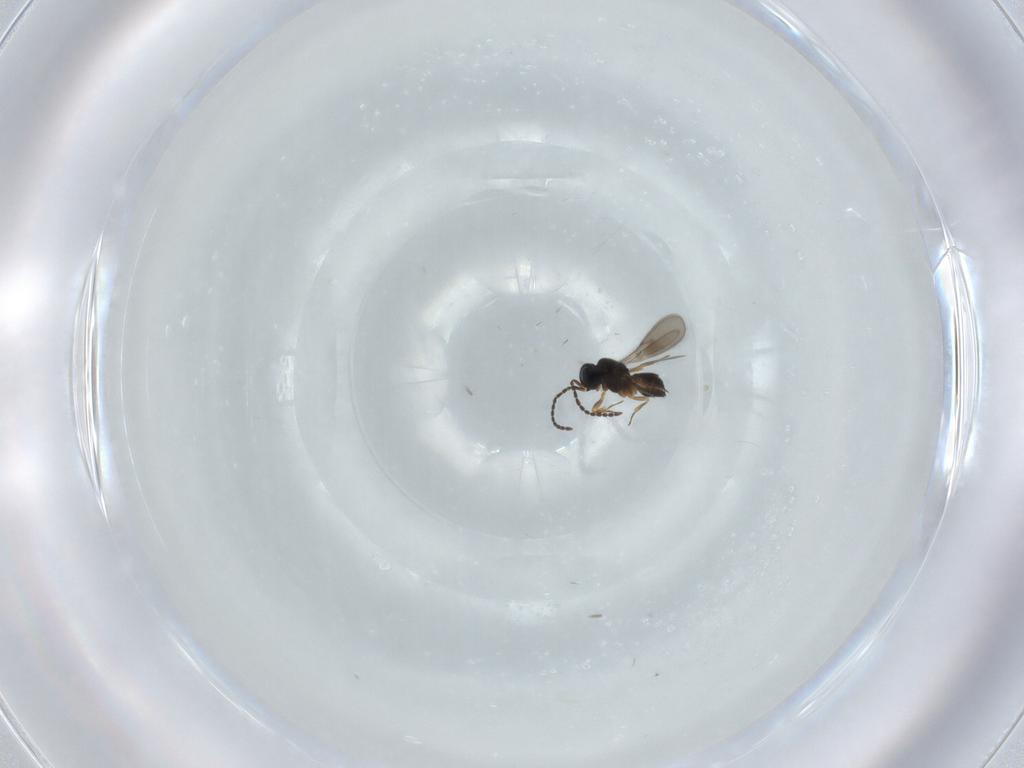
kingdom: Animalia
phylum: Arthropoda
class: Insecta
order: Hymenoptera
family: Scelionidae
